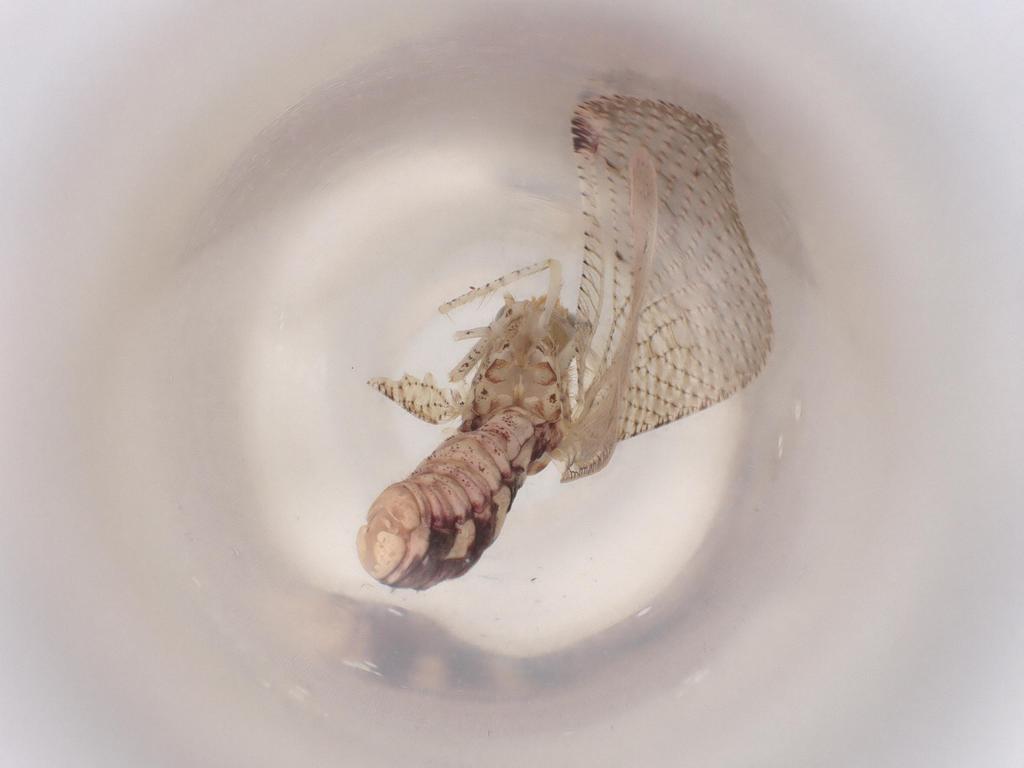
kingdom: Animalia
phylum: Arthropoda
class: Insecta
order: Neuroptera
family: Berothidae
